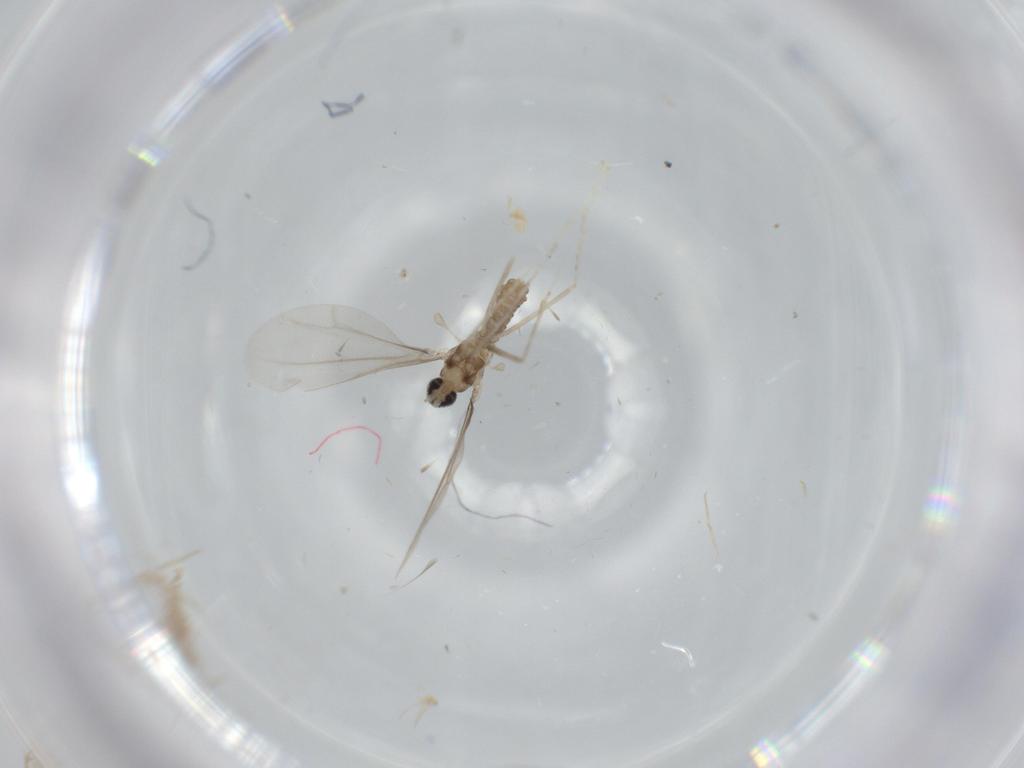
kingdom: Animalia
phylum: Arthropoda
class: Insecta
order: Diptera
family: Cecidomyiidae
